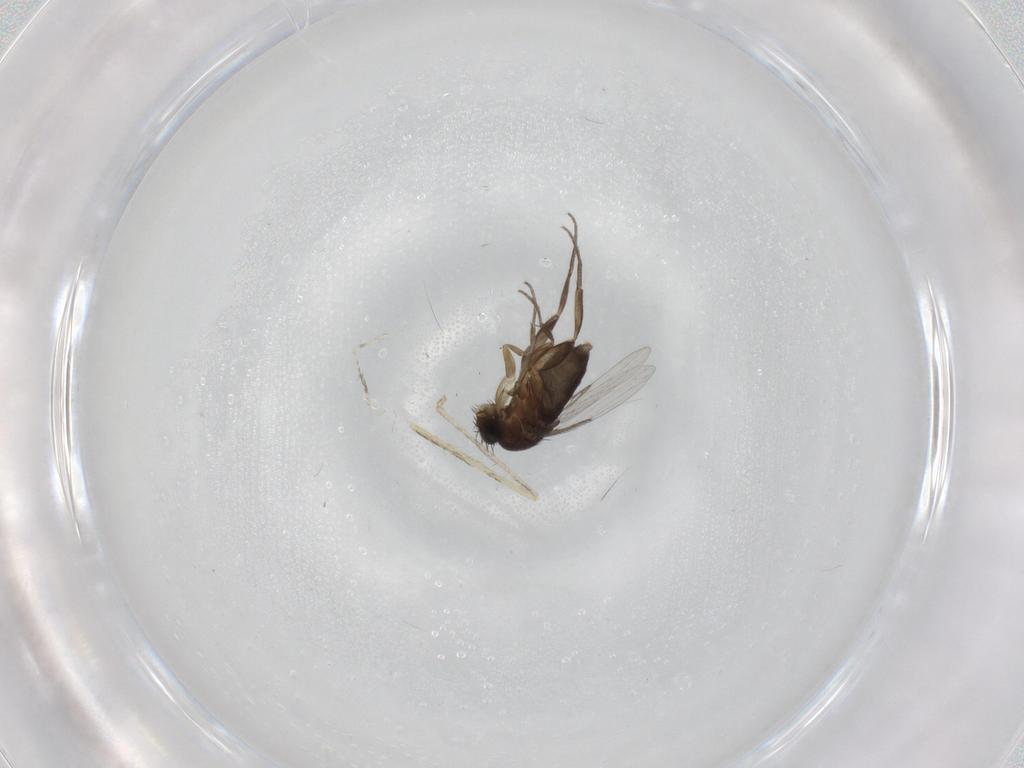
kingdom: Animalia
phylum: Arthropoda
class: Insecta
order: Diptera
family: Phoridae
